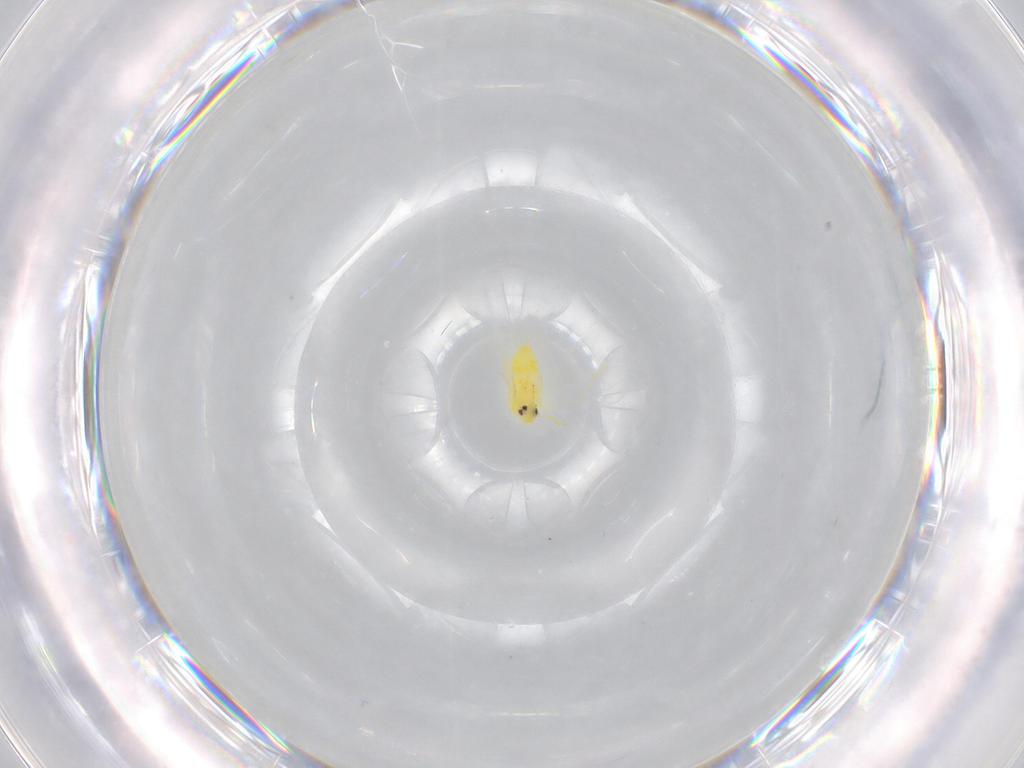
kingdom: Animalia
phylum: Arthropoda
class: Insecta
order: Hemiptera
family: Aleyrodidae
